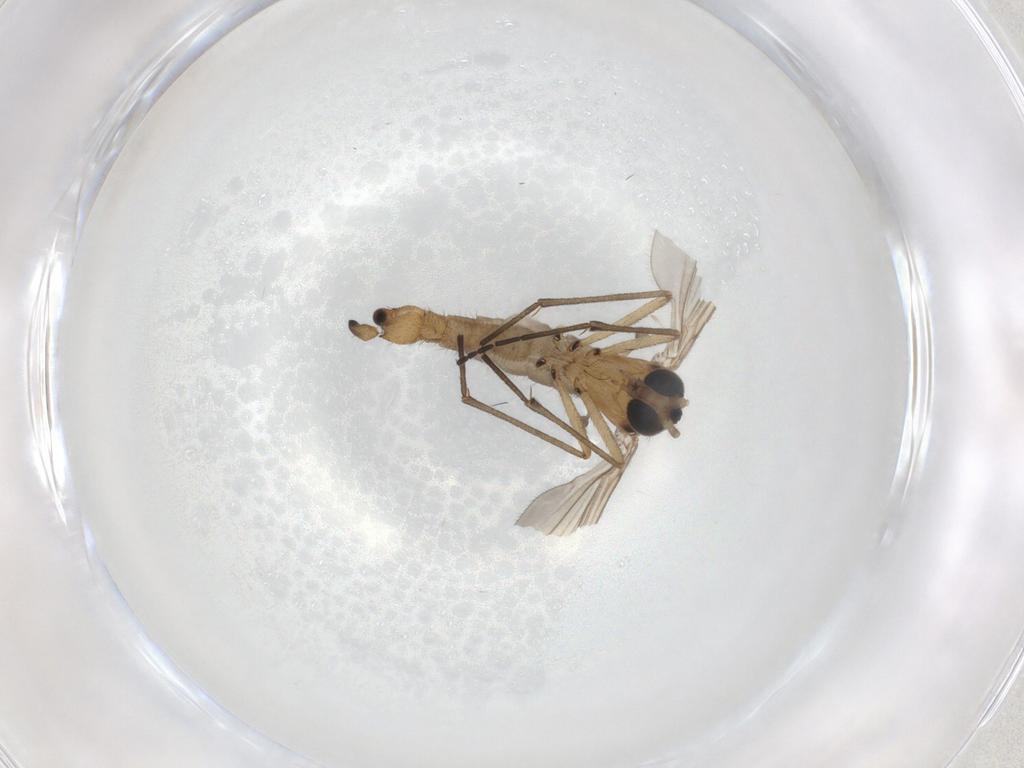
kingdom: Animalia
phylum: Arthropoda
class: Insecta
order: Diptera
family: Sciaridae
